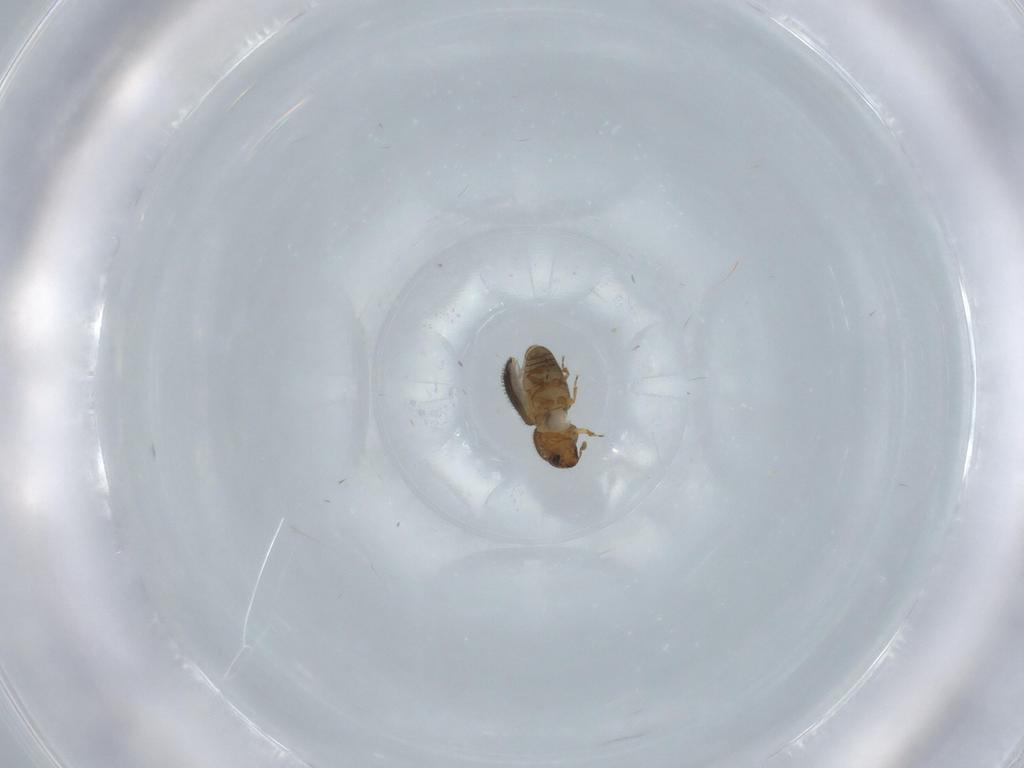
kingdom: Animalia
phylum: Arthropoda
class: Insecta
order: Coleoptera
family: Curculionidae
